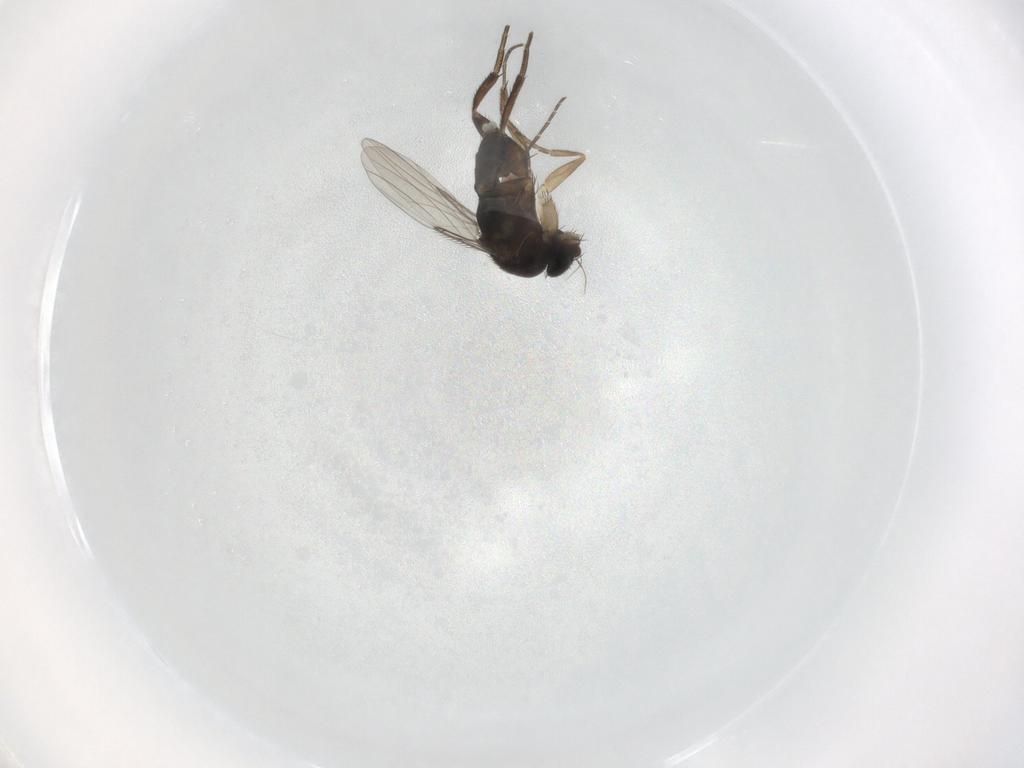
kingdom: Animalia
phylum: Arthropoda
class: Insecta
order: Diptera
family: Phoridae
